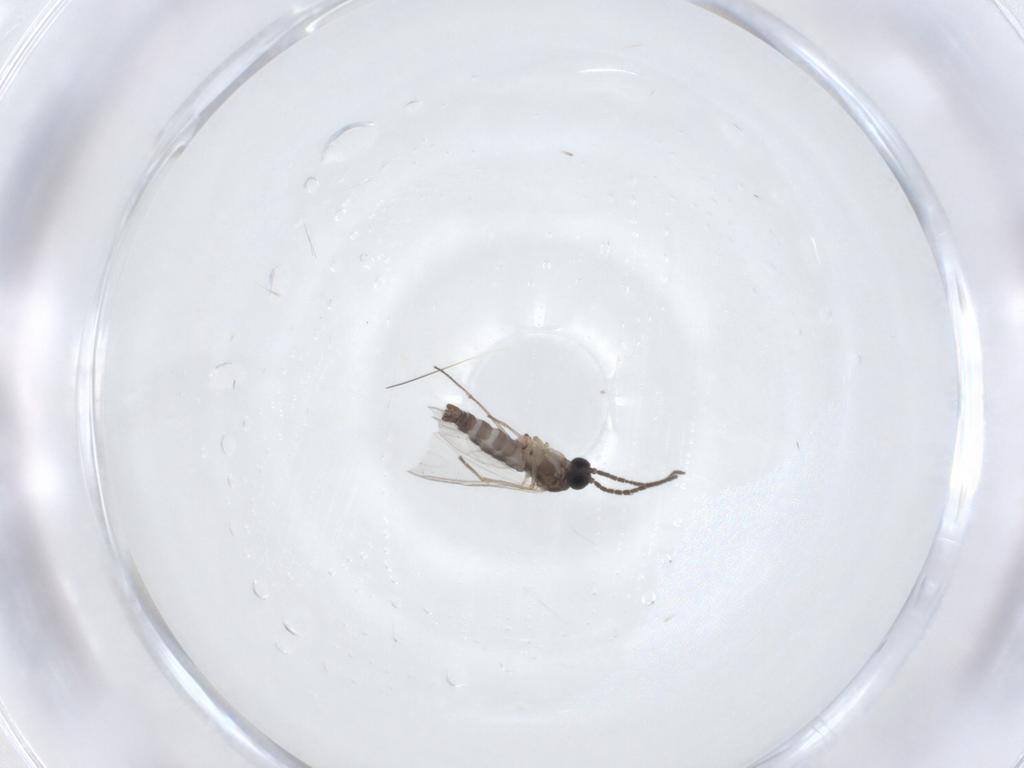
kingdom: Animalia
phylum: Arthropoda
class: Insecta
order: Diptera
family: Sciaridae
